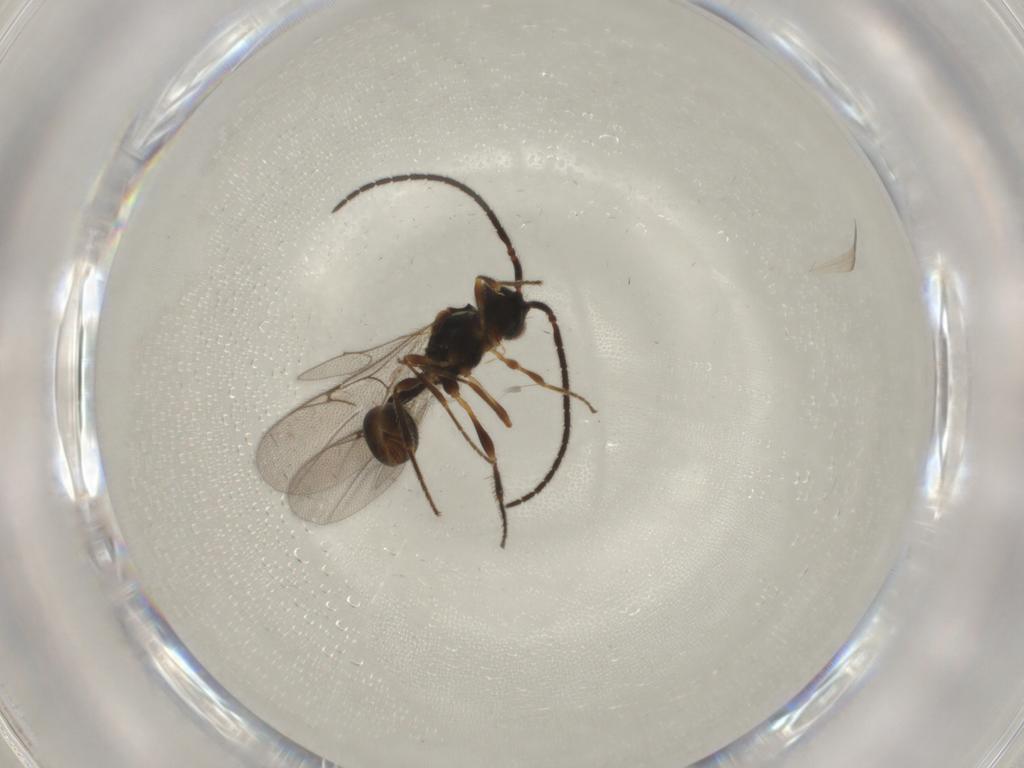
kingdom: Animalia
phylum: Arthropoda
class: Insecta
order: Hymenoptera
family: Diapriidae
